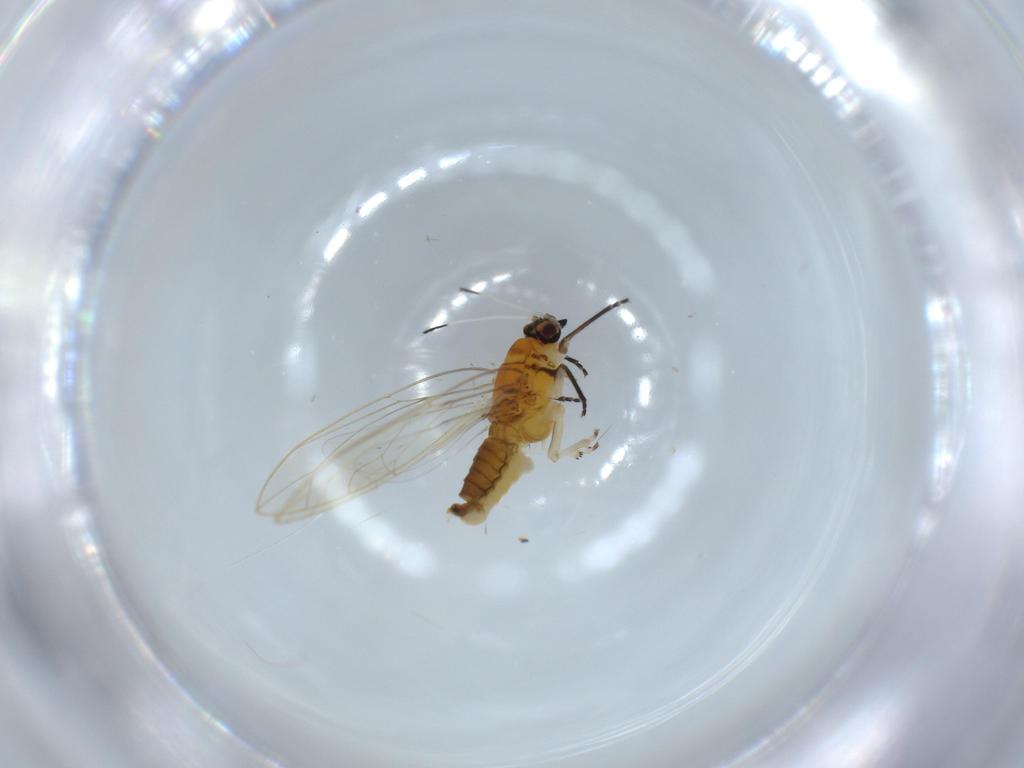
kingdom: Animalia
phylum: Arthropoda
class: Insecta
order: Hemiptera
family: Triozidae
